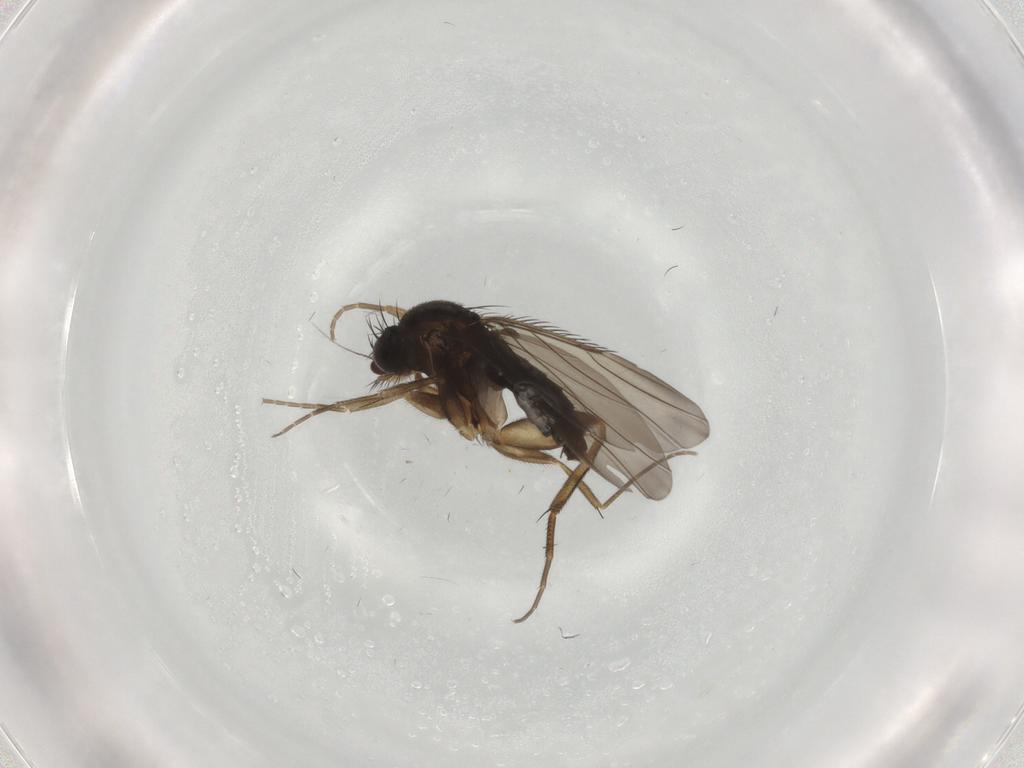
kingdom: Animalia
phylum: Arthropoda
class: Insecta
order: Diptera
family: Phoridae
